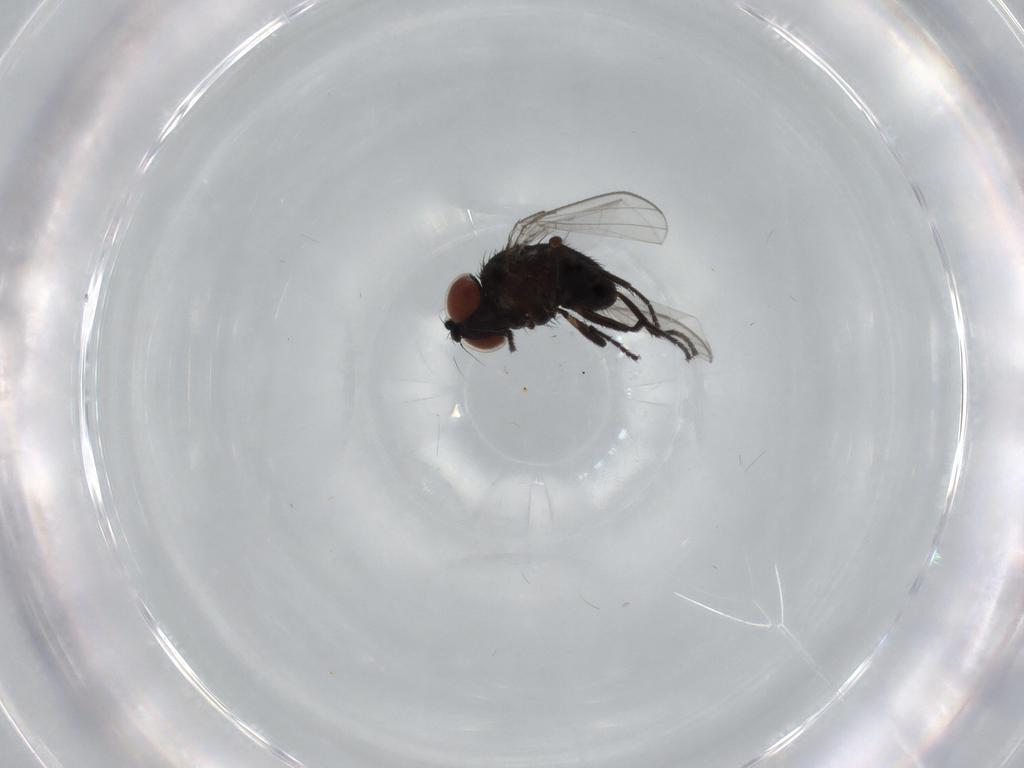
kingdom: Animalia
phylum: Arthropoda
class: Insecta
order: Diptera
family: Milichiidae
